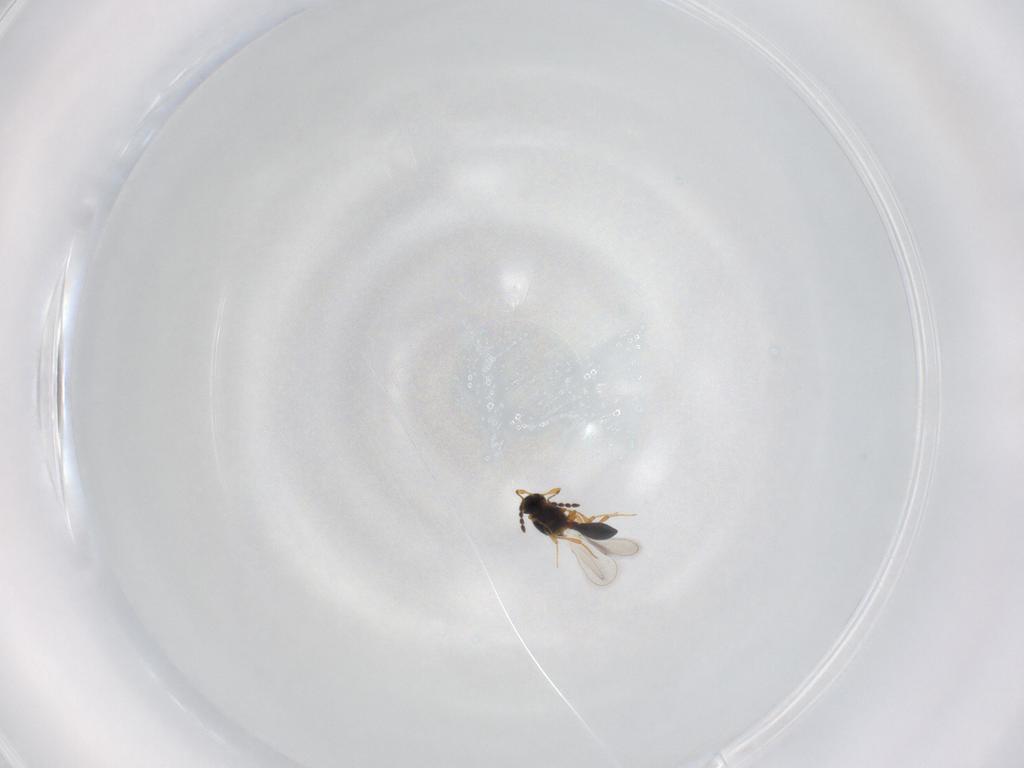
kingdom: Animalia
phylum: Arthropoda
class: Insecta
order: Hymenoptera
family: Platygastridae
